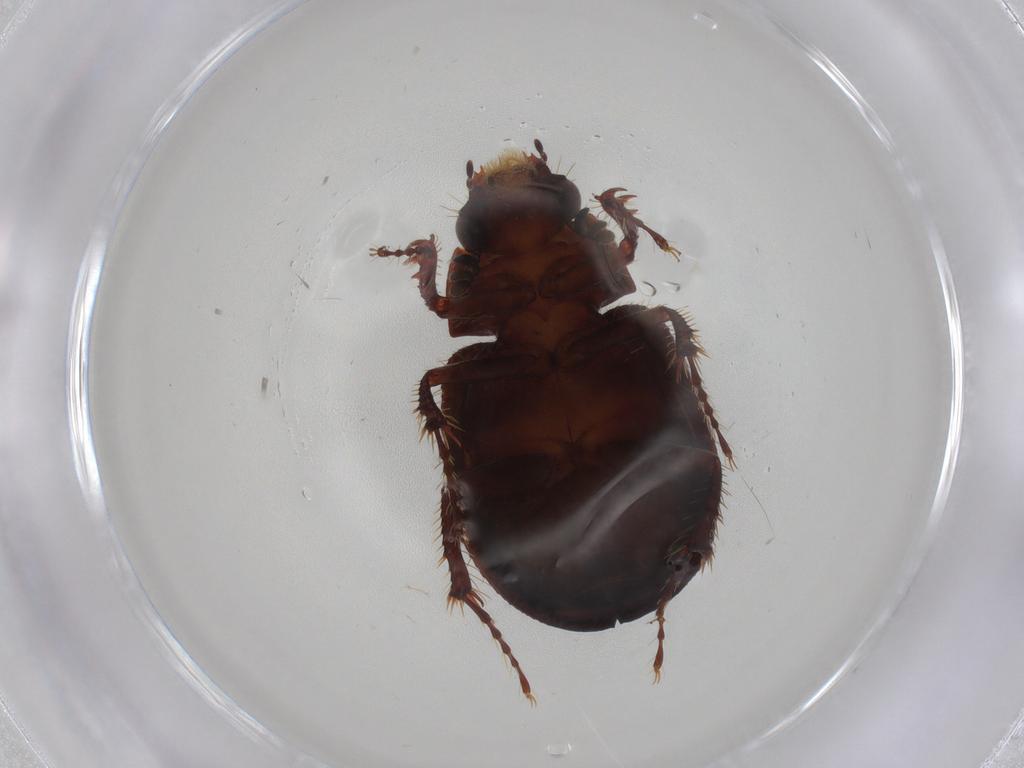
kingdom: Animalia
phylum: Arthropoda
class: Insecta
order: Coleoptera
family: Hybosoridae
